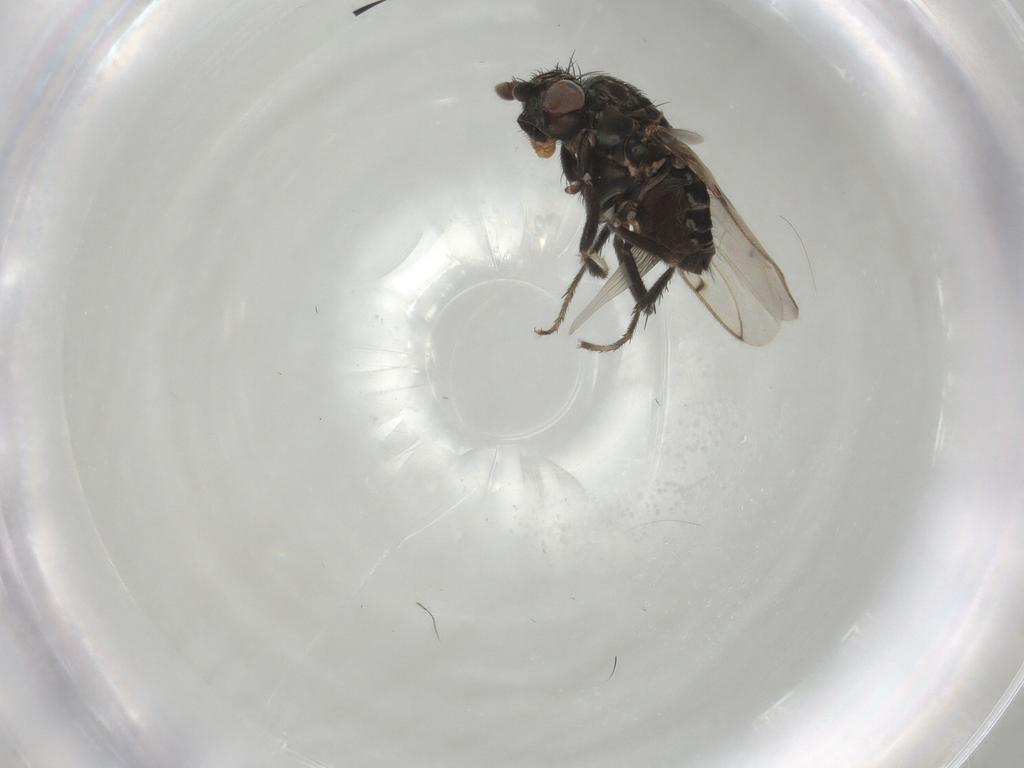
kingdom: Animalia
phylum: Arthropoda
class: Insecta
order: Diptera
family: Sphaeroceridae
